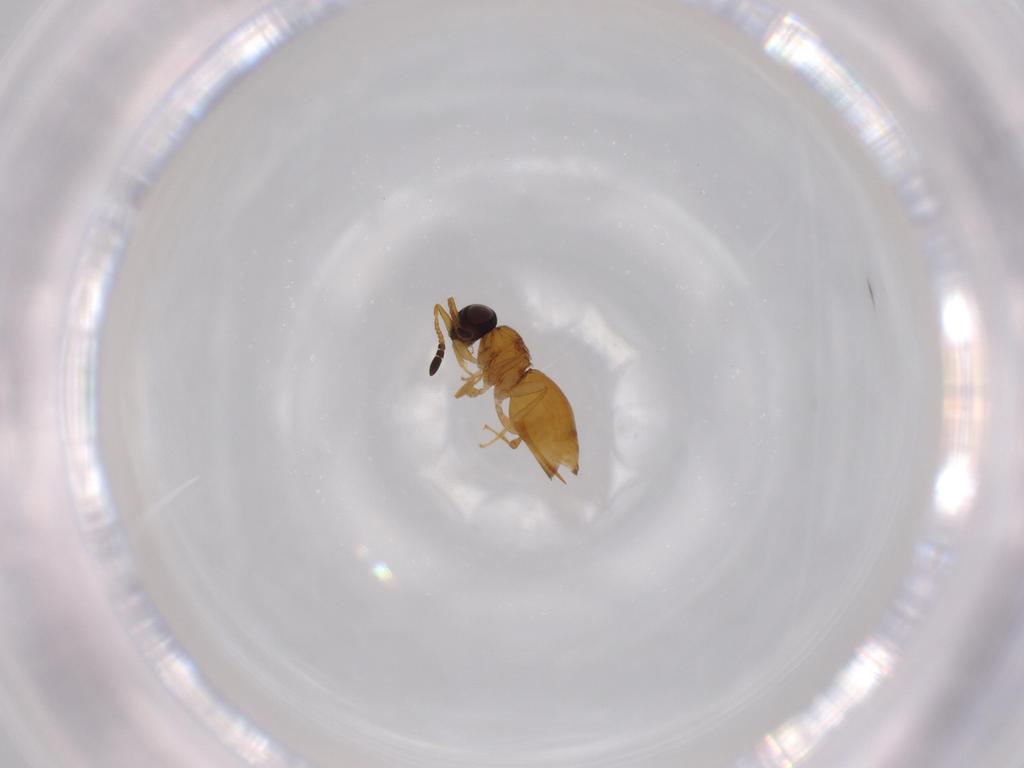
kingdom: Animalia
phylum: Arthropoda
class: Insecta
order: Hymenoptera
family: Ceraphronidae
